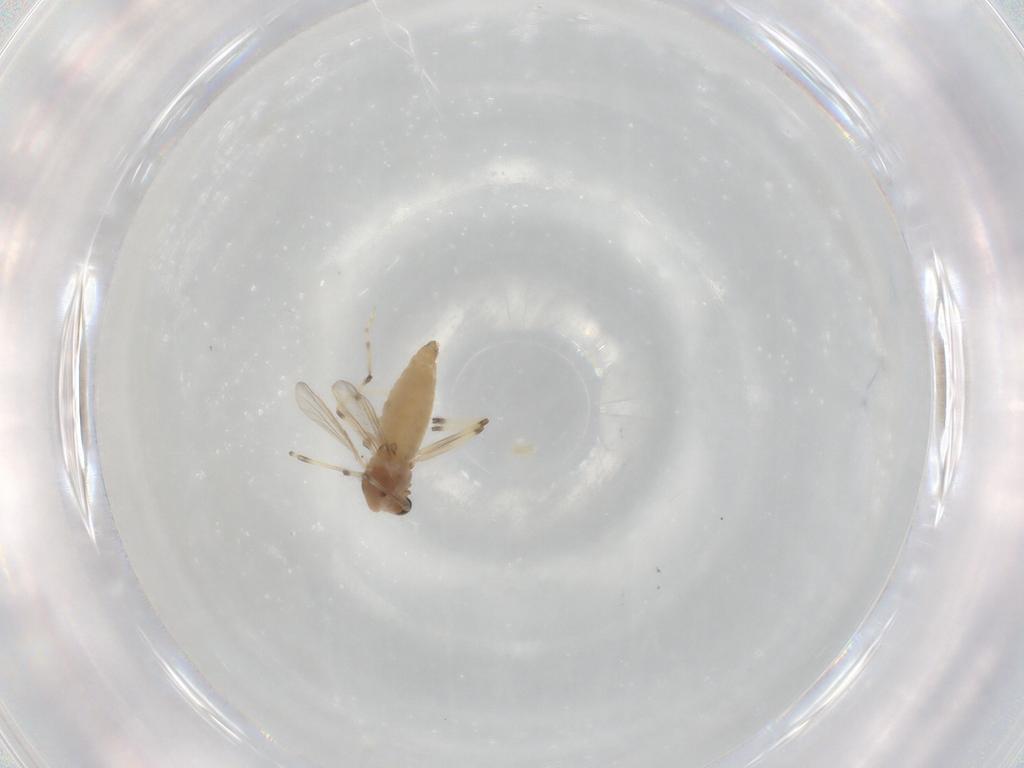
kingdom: Animalia
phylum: Arthropoda
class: Insecta
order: Diptera
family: Chironomidae
